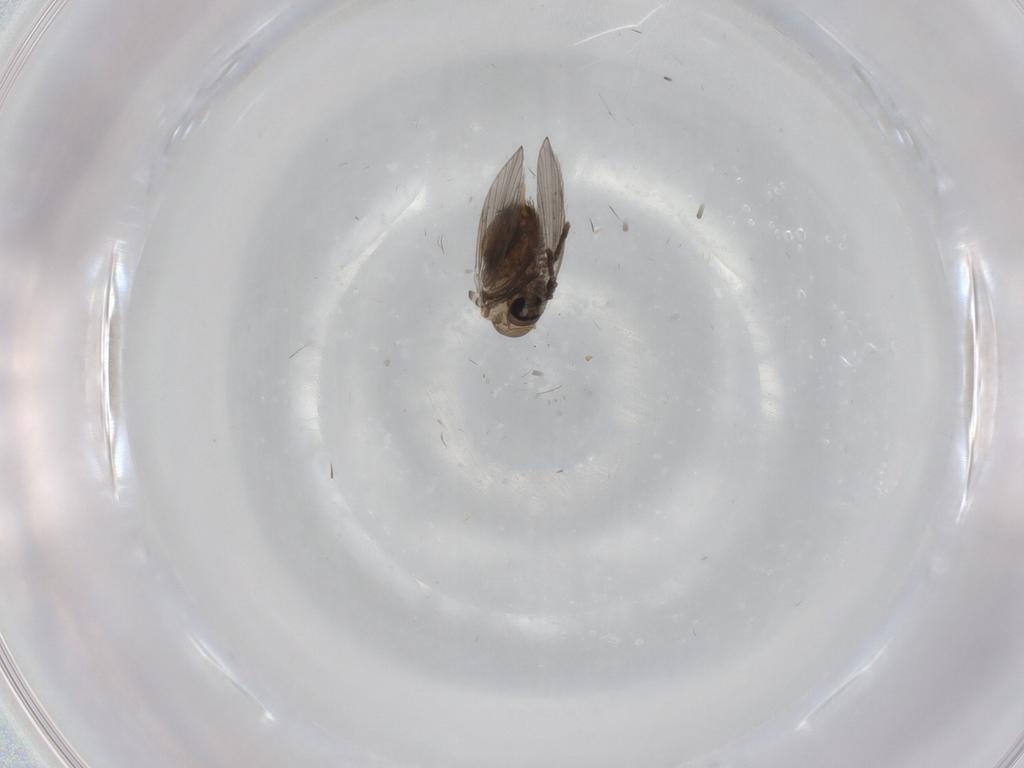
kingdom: Animalia
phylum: Arthropoda
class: Insecta
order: Diptera
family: Psychodidae
